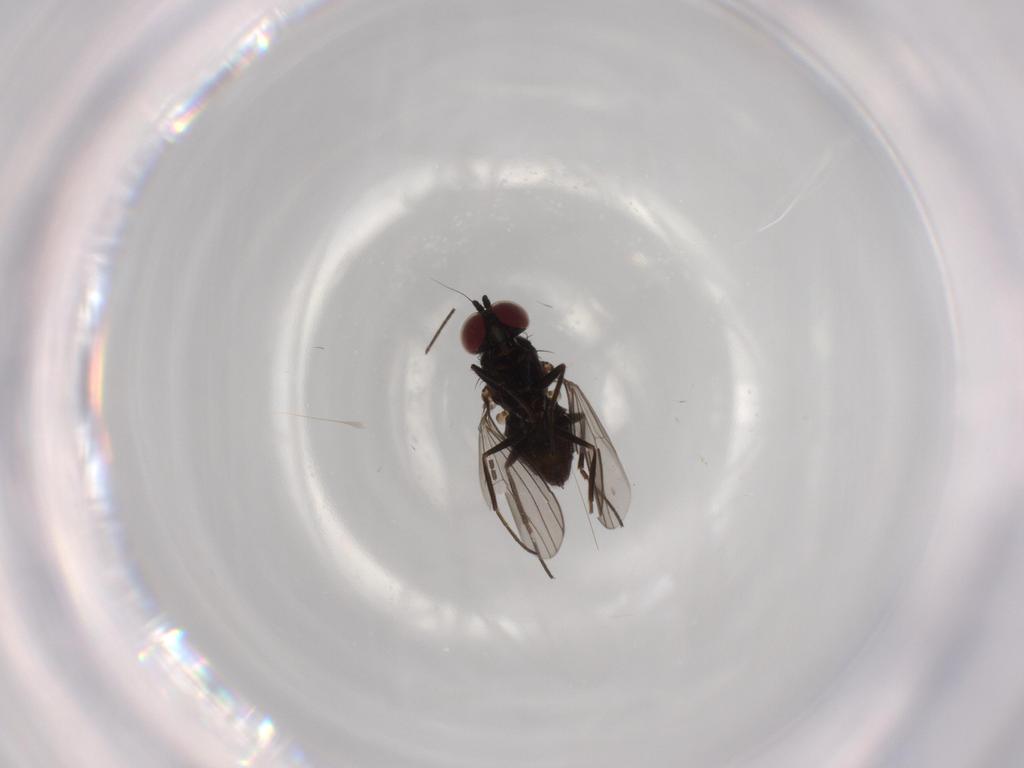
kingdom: Animalia
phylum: Arthropoda
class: Insecta
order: Diptera
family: Dolichopodidae
